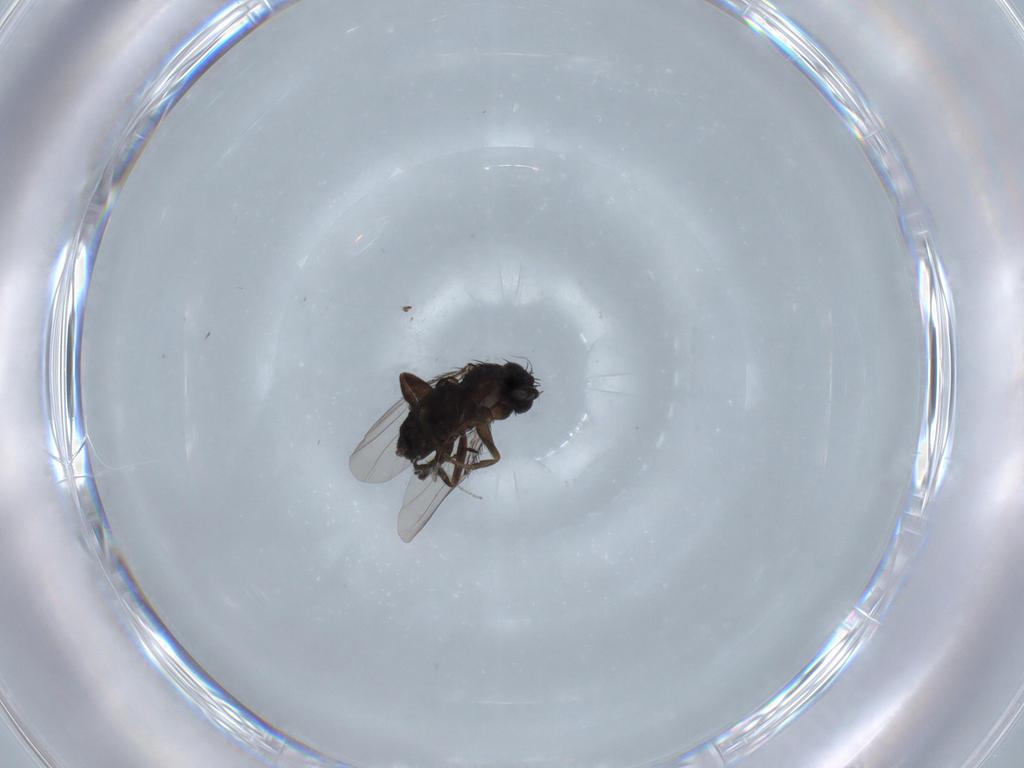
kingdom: Animalia
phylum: Arthropoda
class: Insecta
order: Diptera
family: Phoridae
